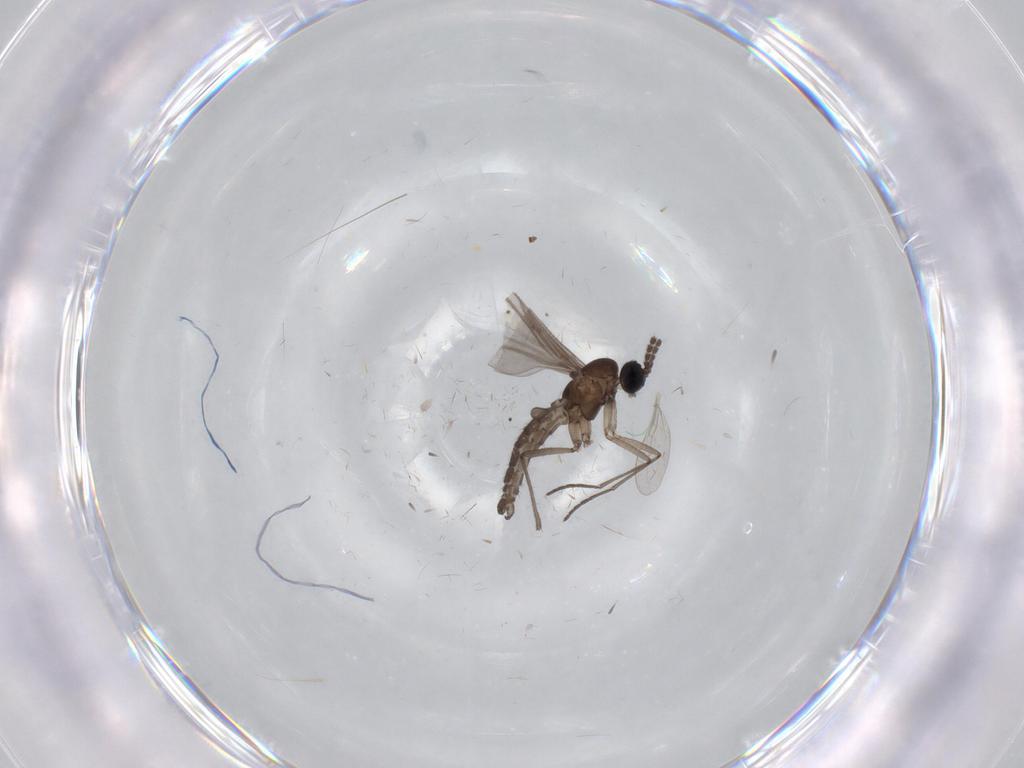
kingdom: Animalia
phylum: Arthropoda
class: Insecta
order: Diptera
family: Cecidomyiidae
